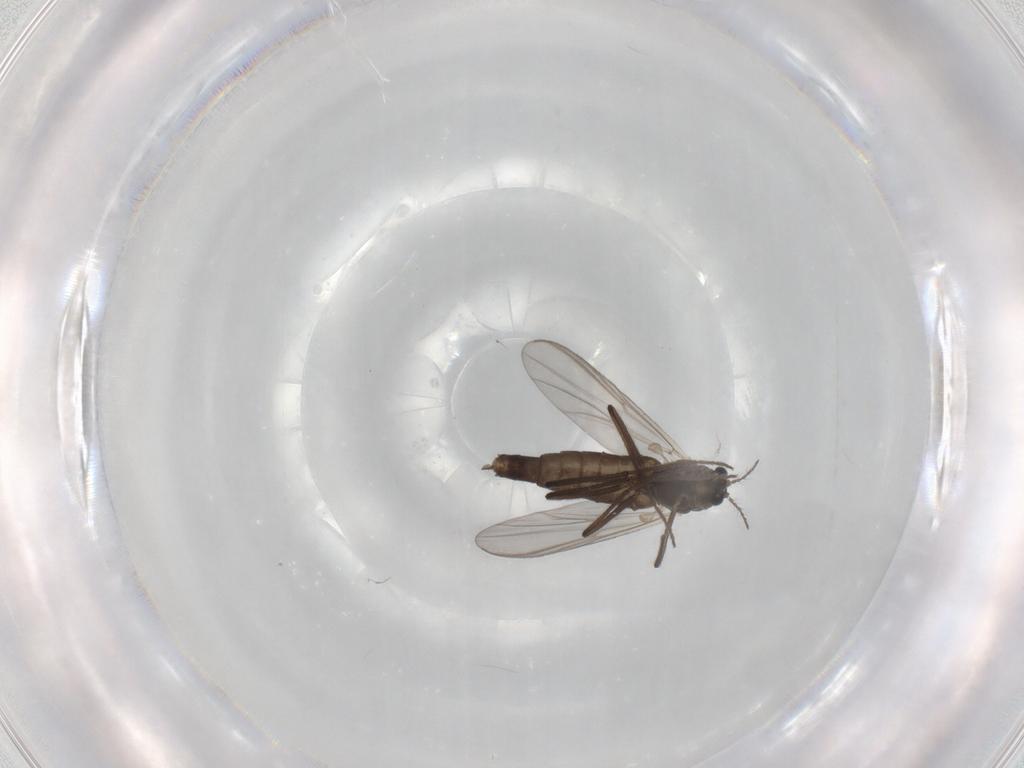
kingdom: Animalia
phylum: Arthropoda
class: Insecta
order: Diptera
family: Chironomidae
